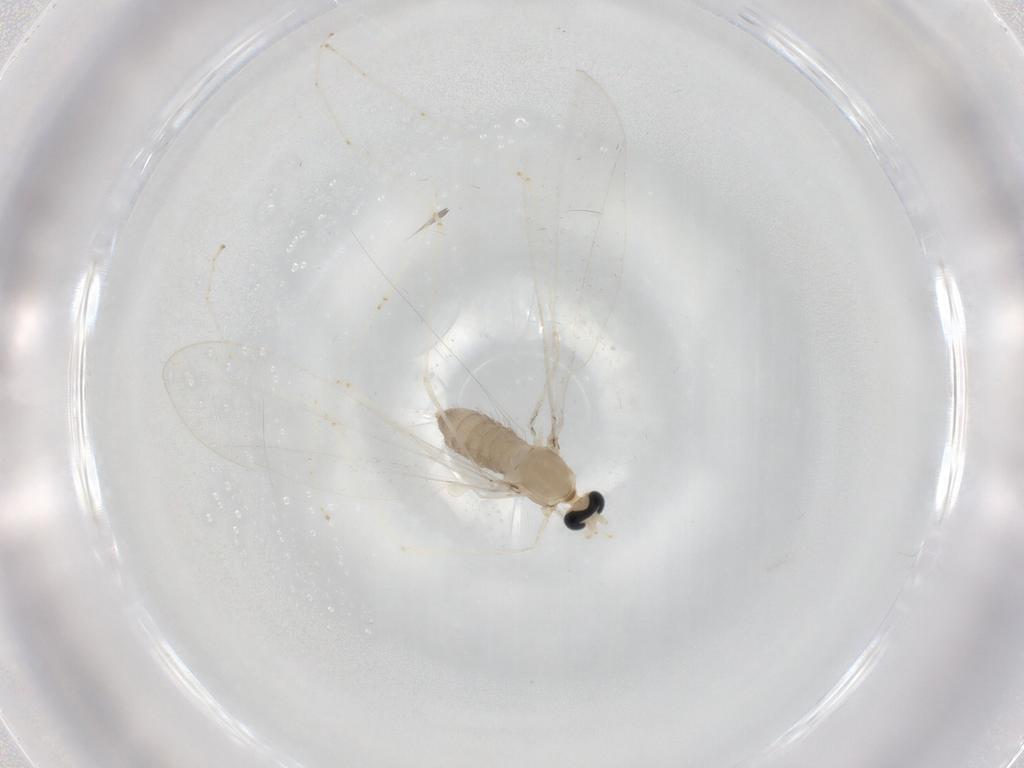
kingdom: Animalia
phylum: Arthropoda
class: Insecta
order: Diptera
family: Cecidomyiidae
